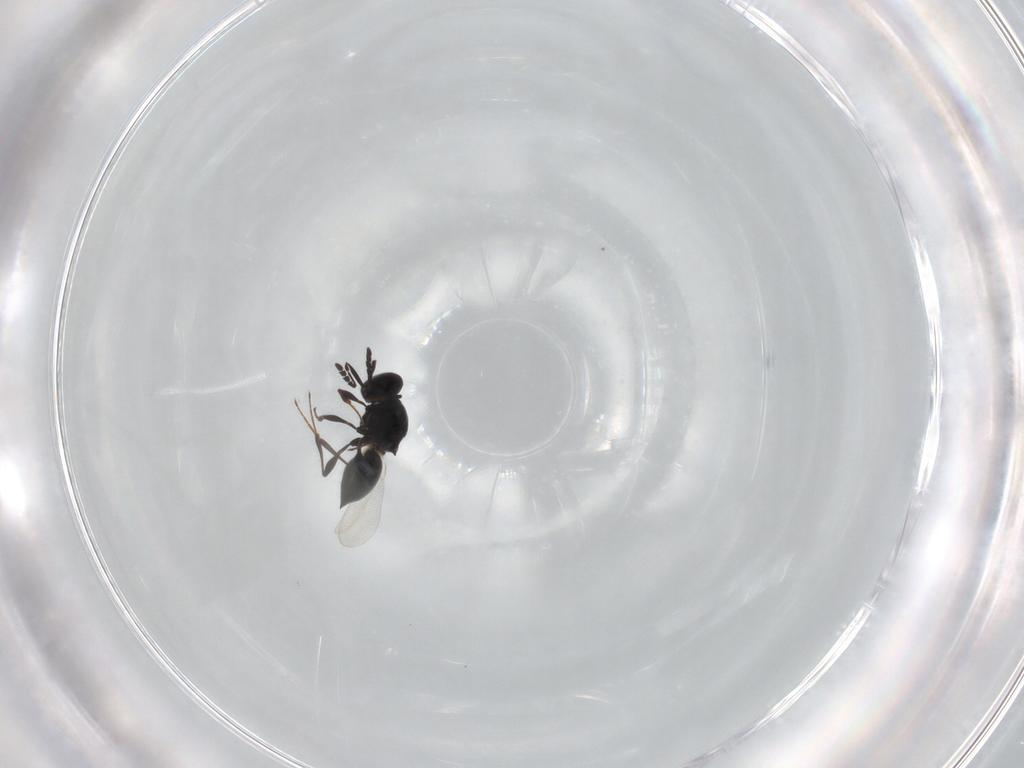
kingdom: Animalia
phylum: Arthropoda
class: Insecta
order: Hymenoptera
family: Platygastridae
